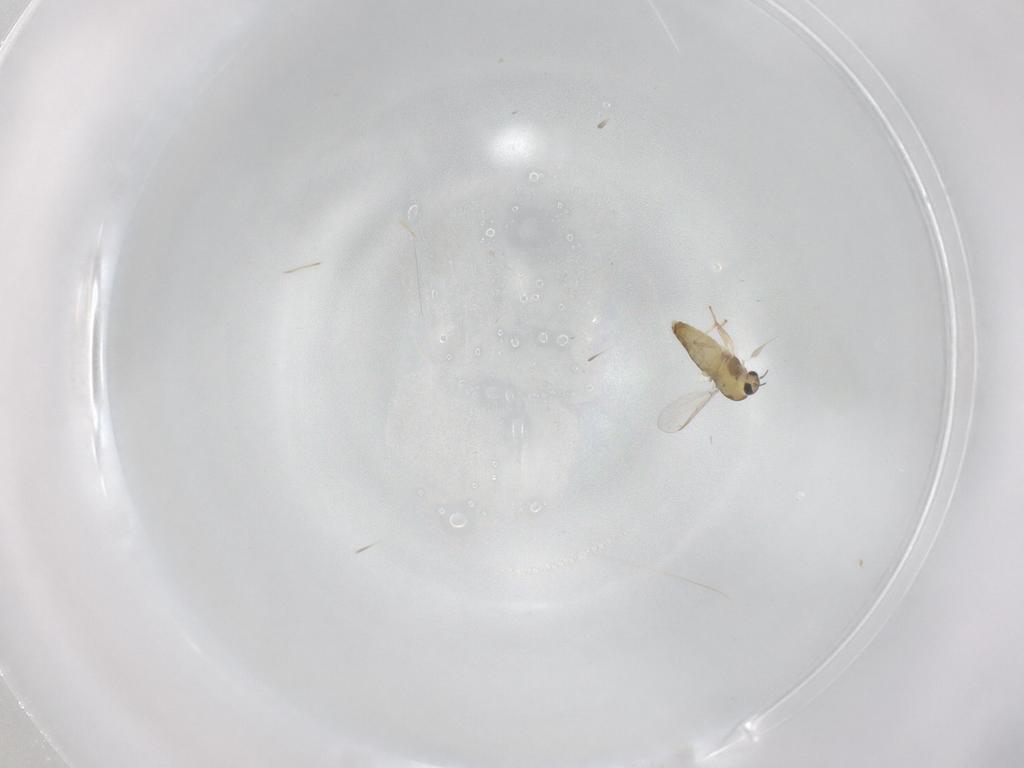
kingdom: Animalia
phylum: Arthropoda
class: Insecta
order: Diptera
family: Chironomidae
